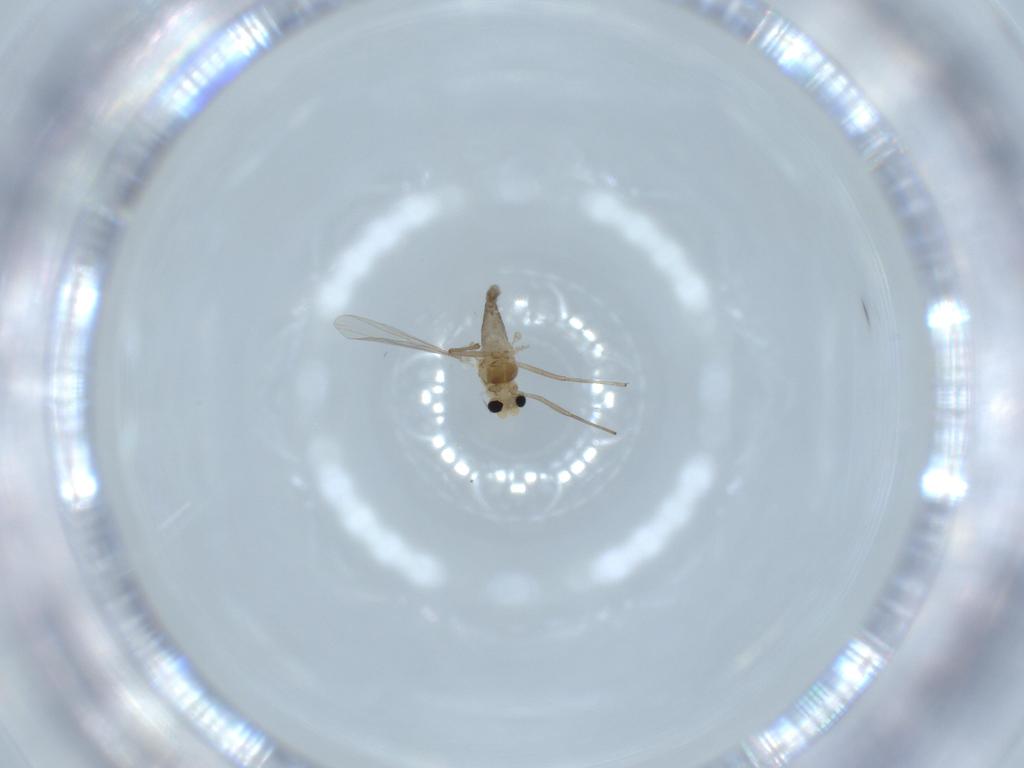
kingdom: Animalia
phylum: Arthropoda
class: Insecta
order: Diptera
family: Chironomidae
